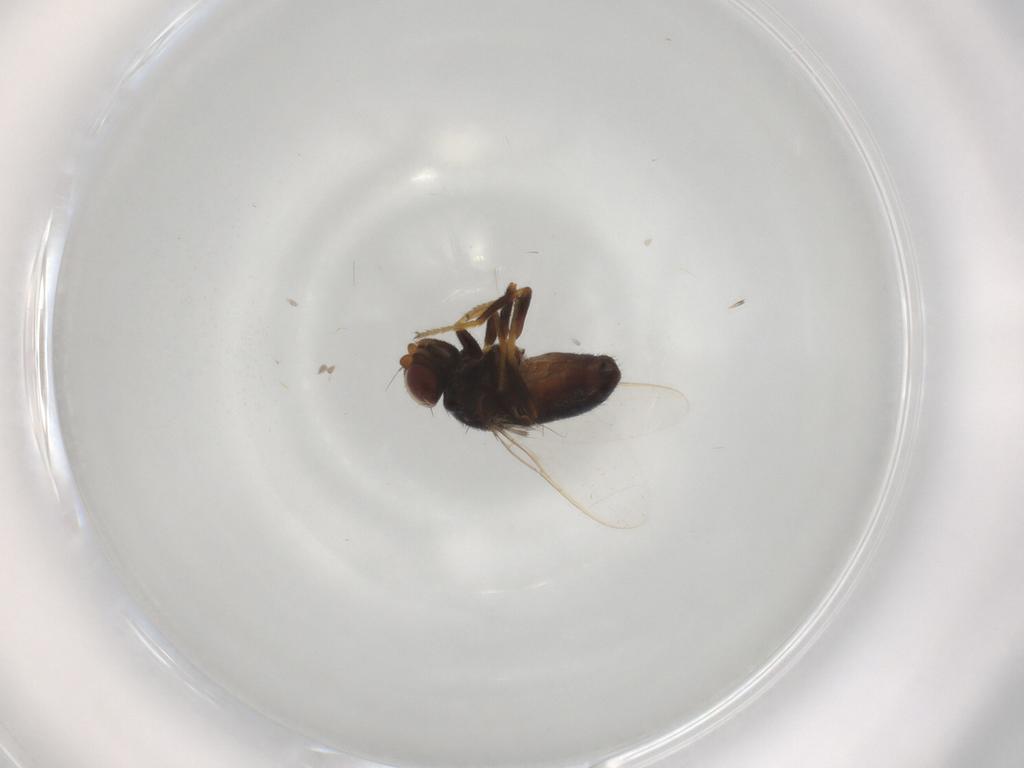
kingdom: Animalia
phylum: Arthropoda
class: Insecta
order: Diptera
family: Chloropidae
